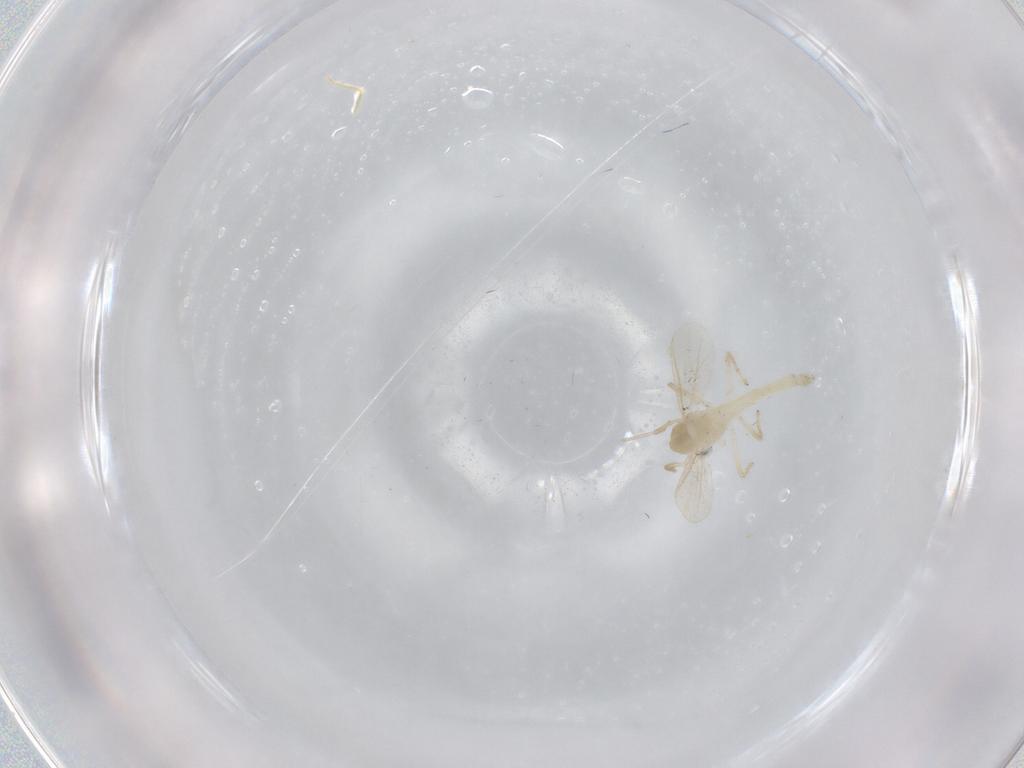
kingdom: Animalia
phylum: Arthropoda
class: Insecta
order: Diptera
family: Chironomidae
